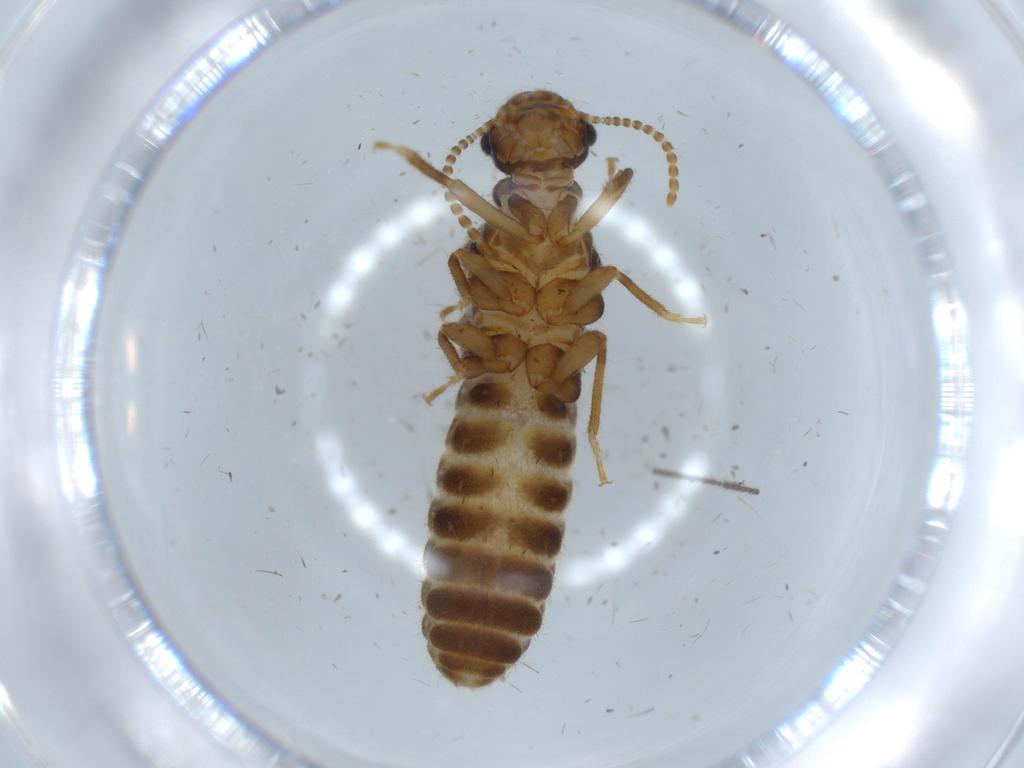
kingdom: Animalia
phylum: Arthropoda
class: Insecta
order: Blattodea
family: Termitidae
